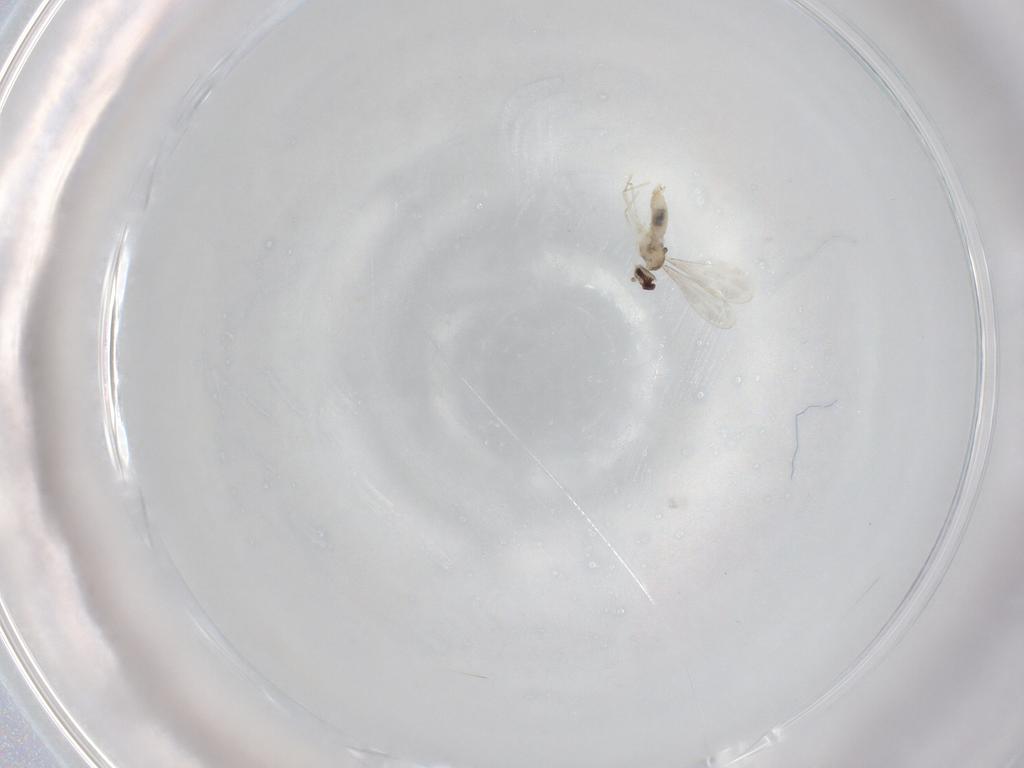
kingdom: Animalia
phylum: Arthropoda
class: Insecta
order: Diptera
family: Cecidomyiidae
